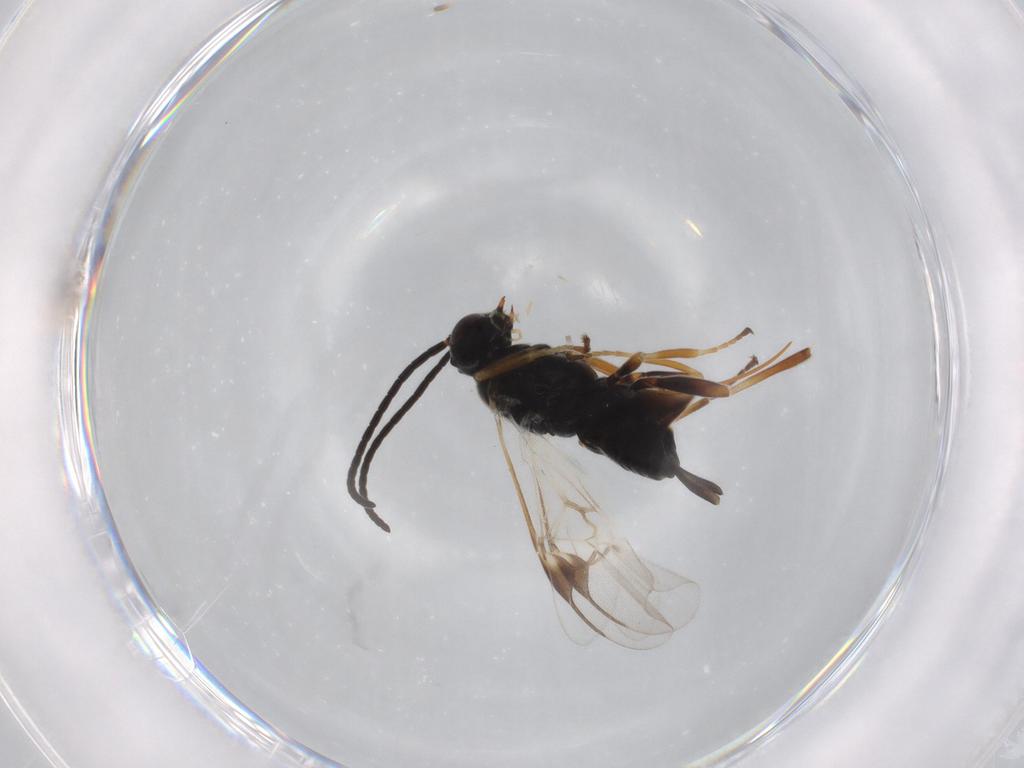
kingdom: Animalia
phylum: Arthropoda
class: Insecta
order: Hymenoptera
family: Braconidae
